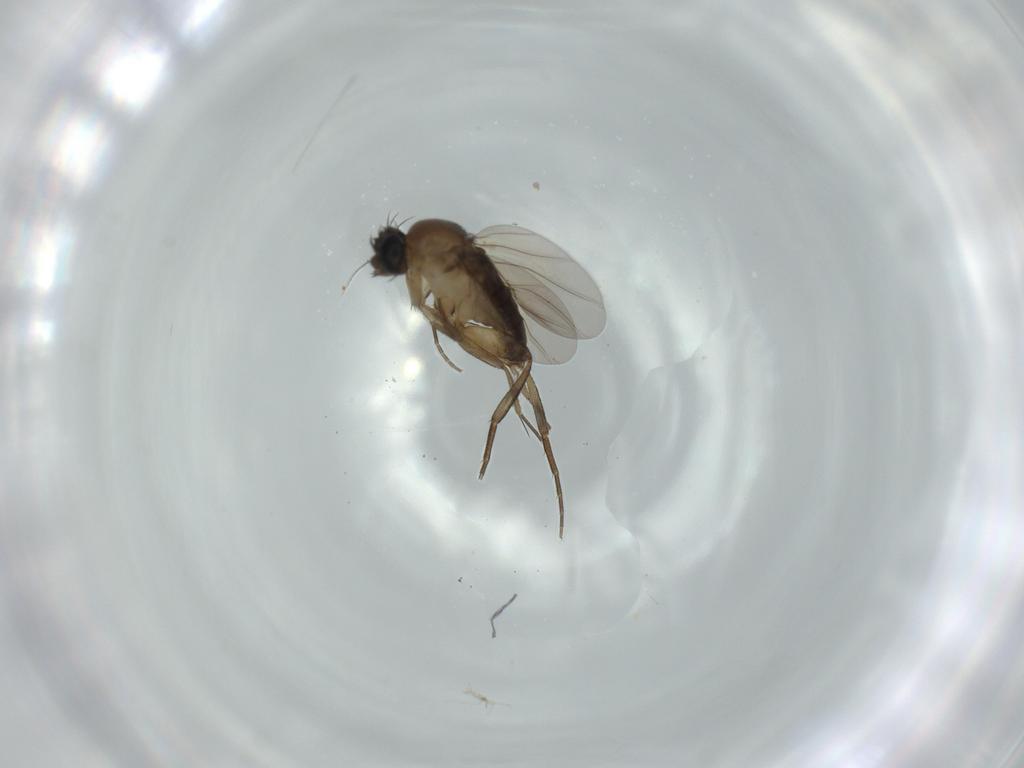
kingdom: Animalia
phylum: Arthropoda
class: Insecta
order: Diptera
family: Phoridae
